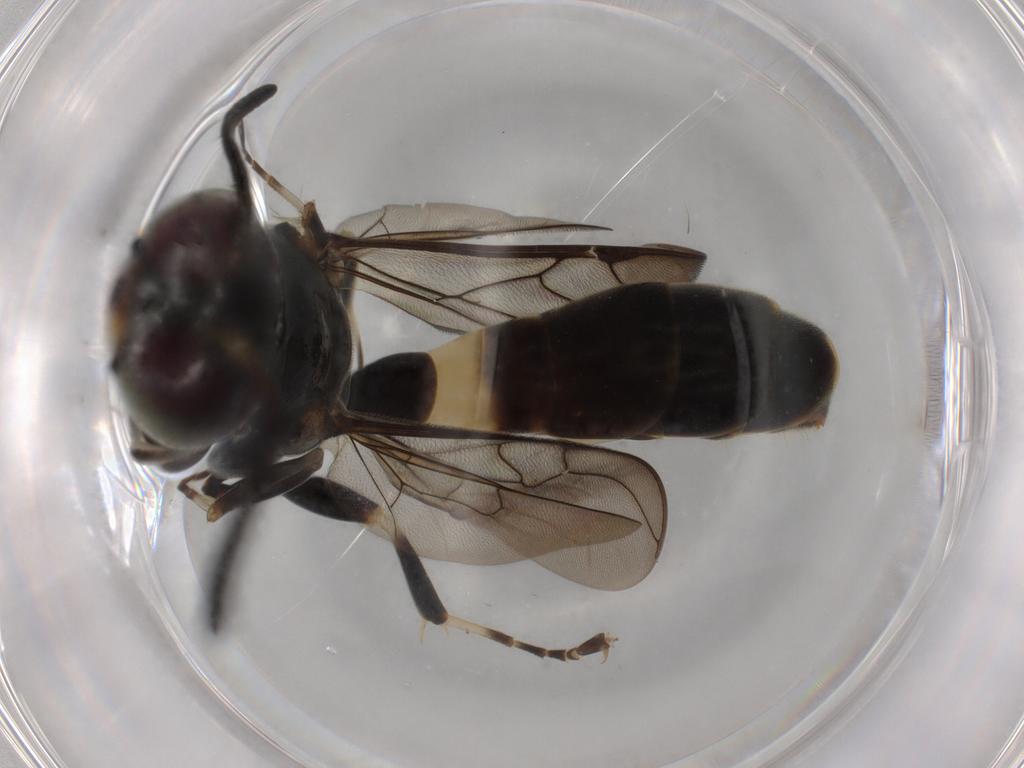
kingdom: Animalia
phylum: Arthropoda
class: Insecta
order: Hymenoptera
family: Crabronidae
